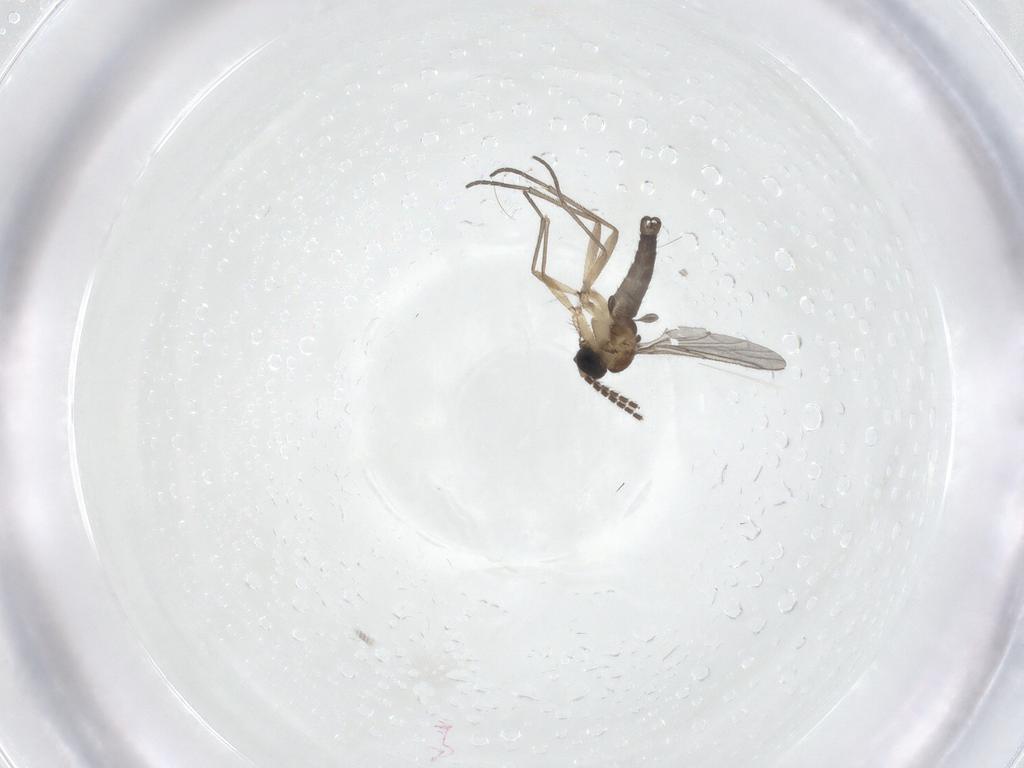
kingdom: Animalia
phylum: Arthropoda
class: Insecta
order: Diptera
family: Sciaridae
